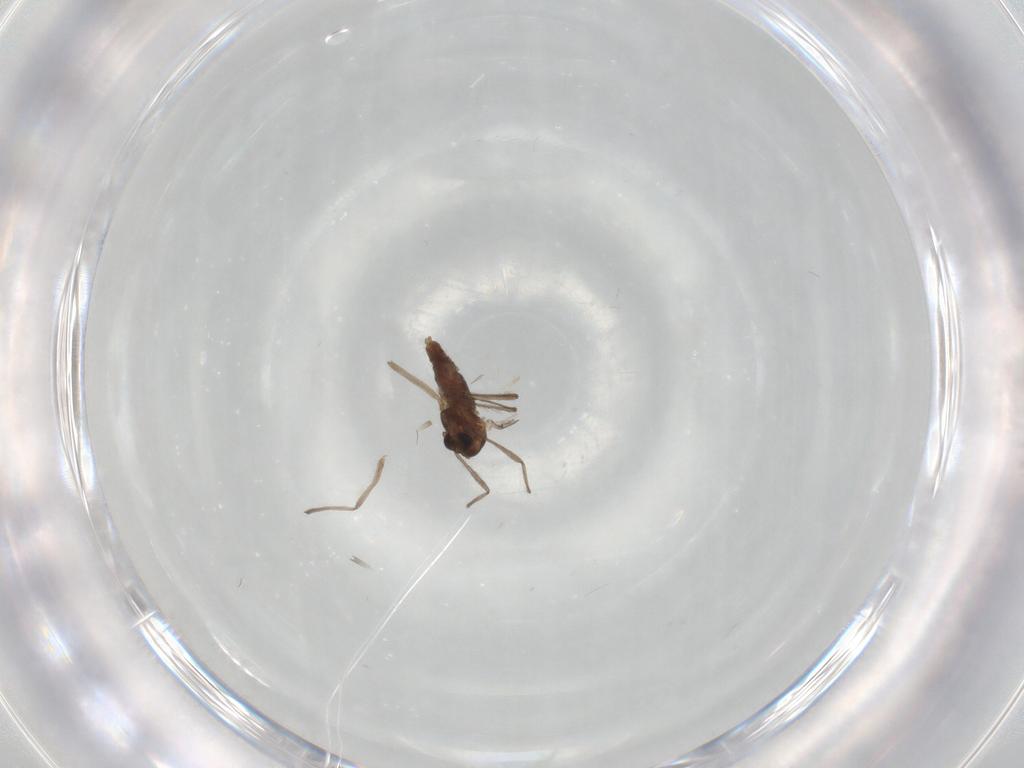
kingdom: Animalia
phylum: Arthropoda
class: Insecta
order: Diptera
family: Chironomidae
